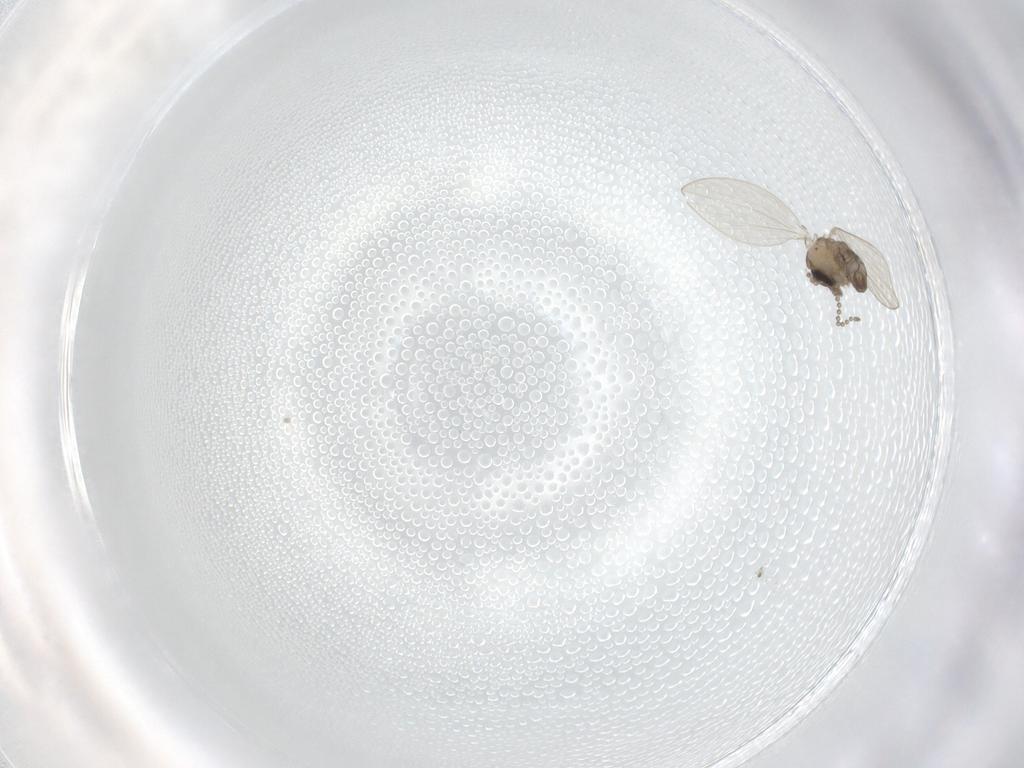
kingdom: Animalia
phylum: Arthropoda
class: Insecta
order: Diptera
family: Psychodidae
